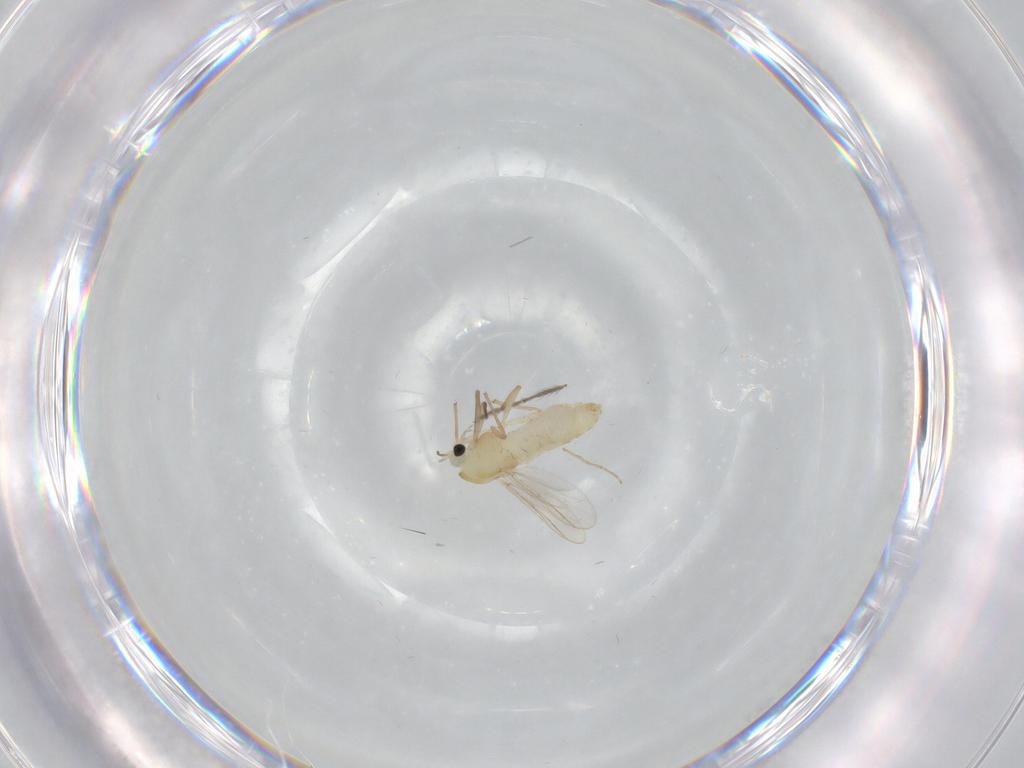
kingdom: Animalia
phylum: Arthropoda
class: Insecta
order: Diptera
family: Chironomidae
